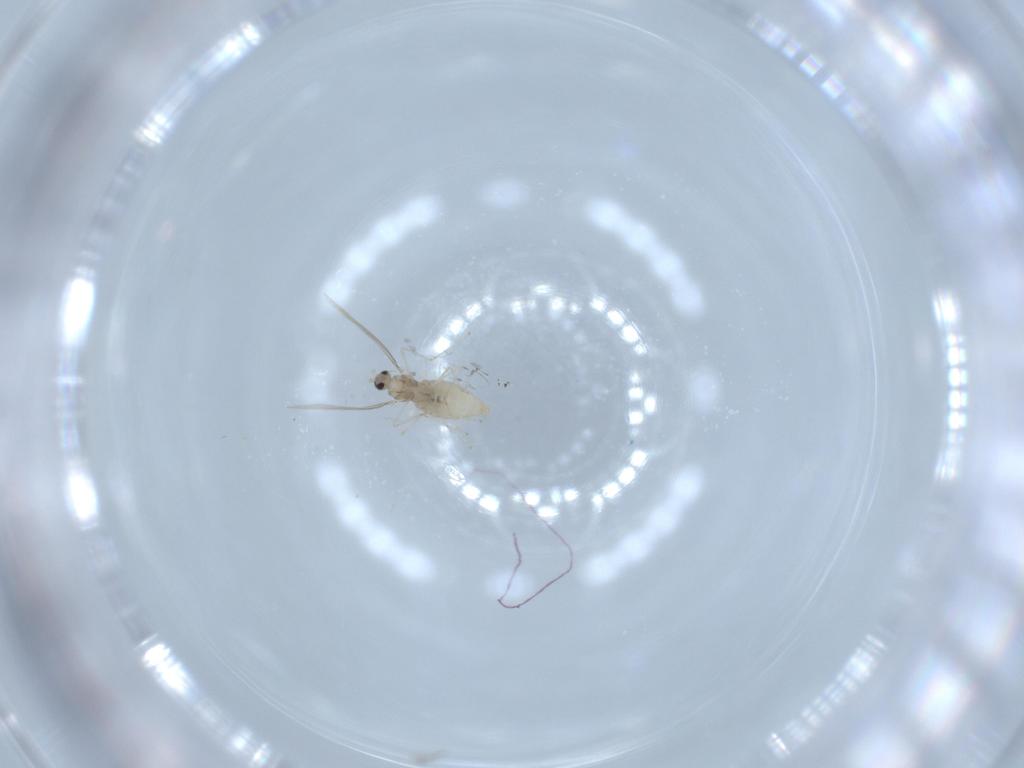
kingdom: Animalia
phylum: Arthropoda
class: Insecta
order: Diptera
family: Cecidomyiidae
